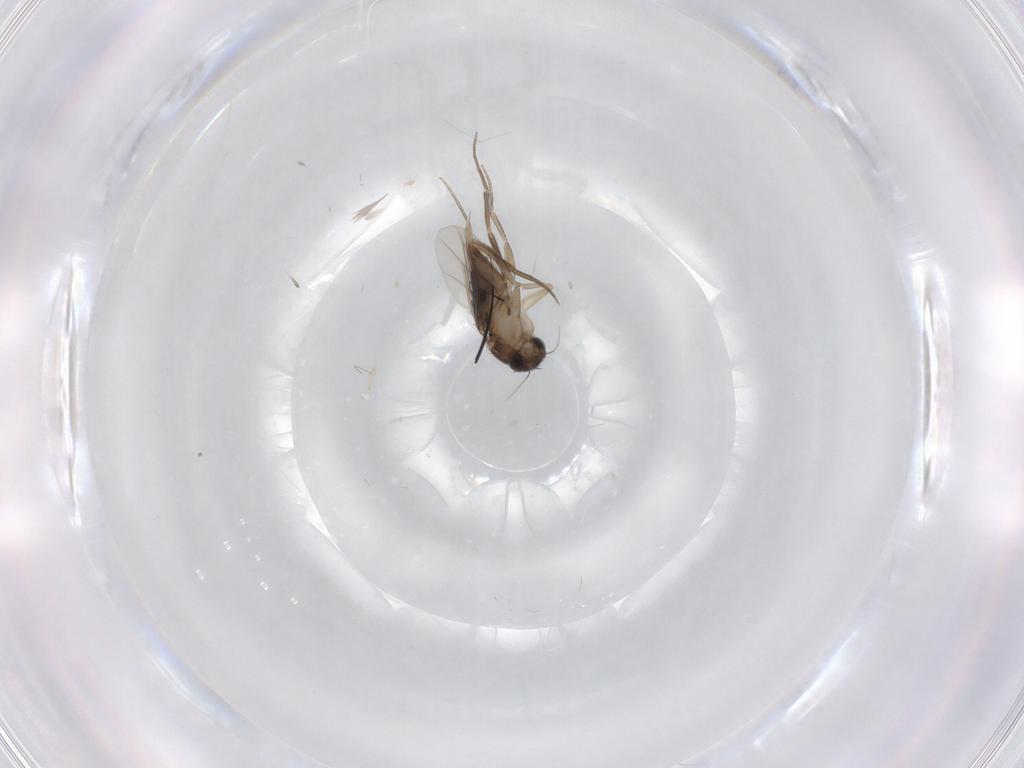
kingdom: Animalia
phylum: Arthropoda
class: Insecta
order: Diptera
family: Phoridae
